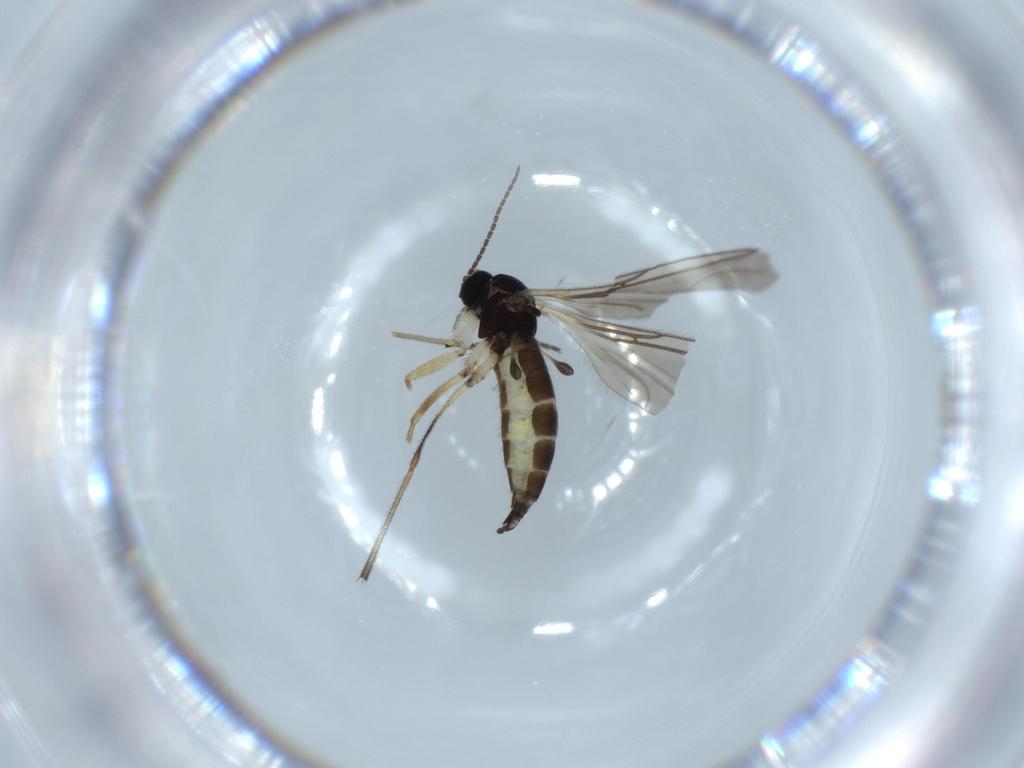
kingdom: Animalia
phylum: Arthropoda
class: Insecta
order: Diptera
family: Sciaridae
